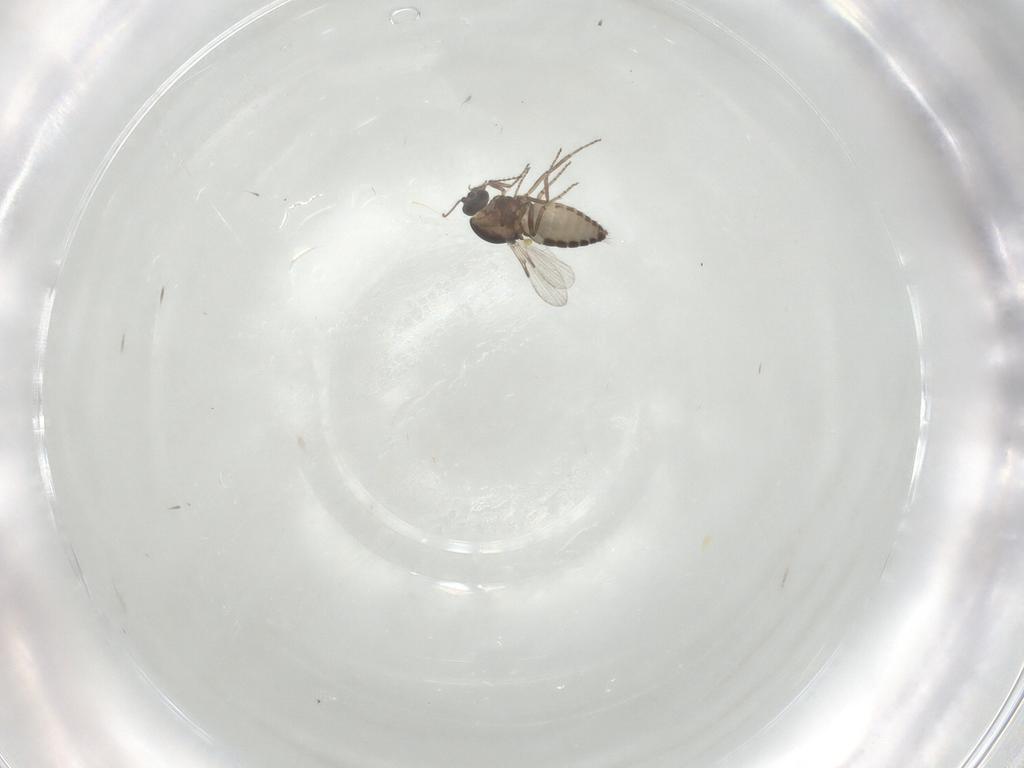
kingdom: Animalia
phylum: Arthropoda
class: Insecta
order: Diptera
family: Ceratopogonidae
